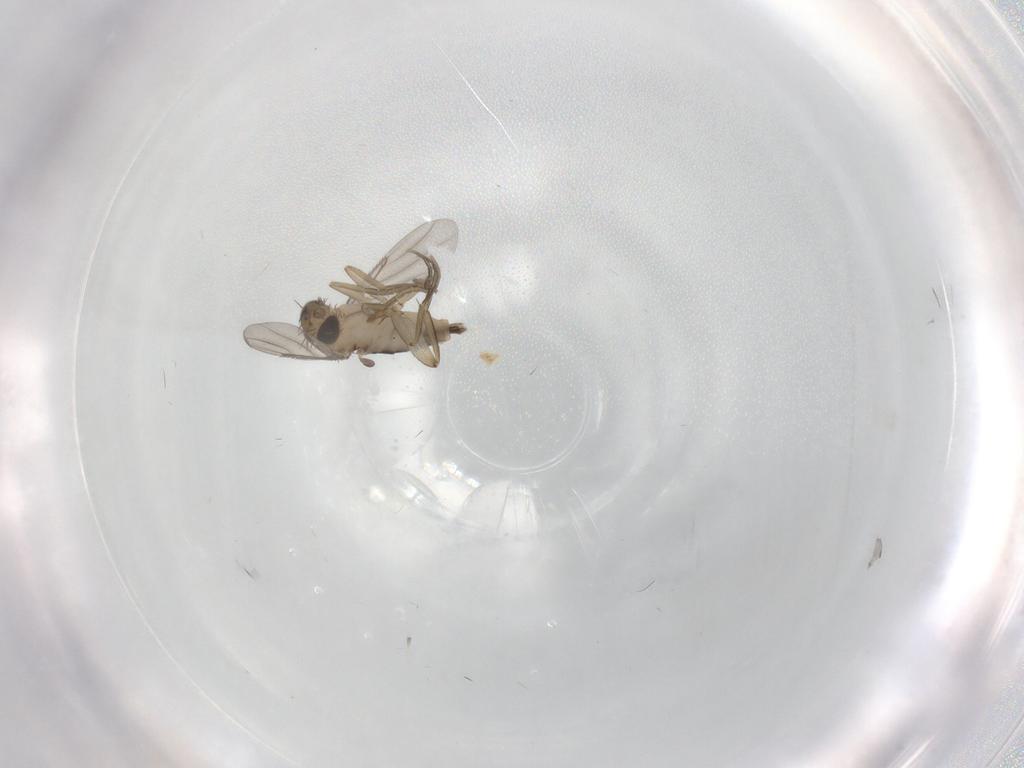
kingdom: Animalia
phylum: Arthropoda
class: Insecta
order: Diptera
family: Phoridae
